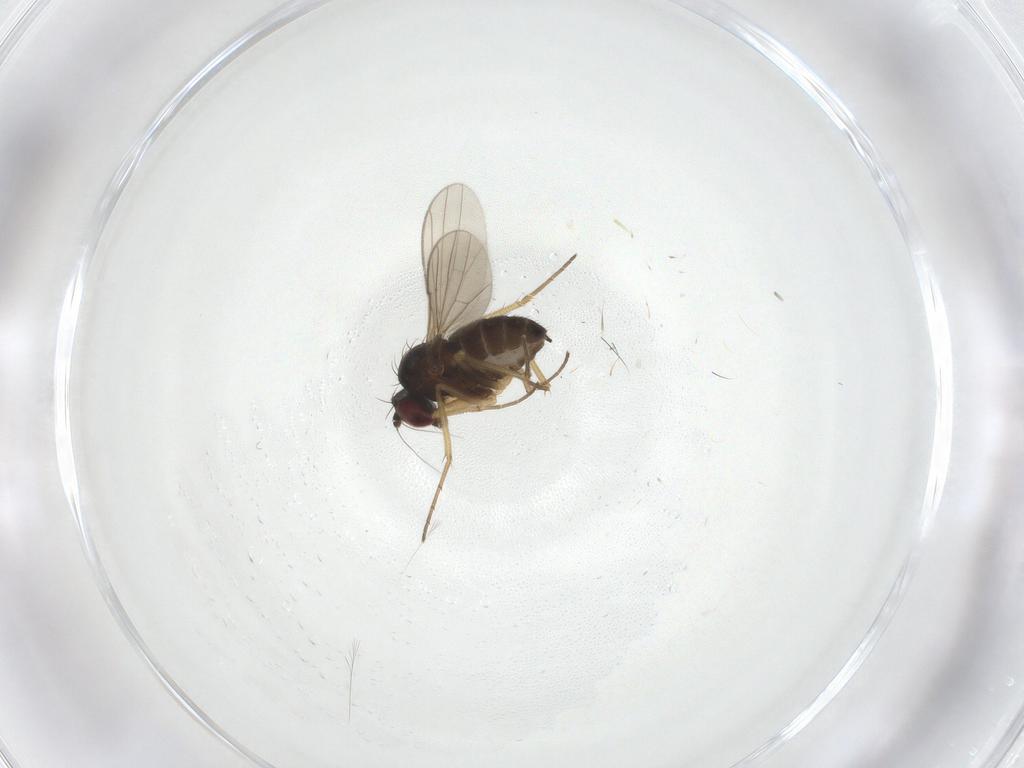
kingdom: Animalia
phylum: Arthropoda
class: Insecta
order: Diptera
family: Dolichopodidae
